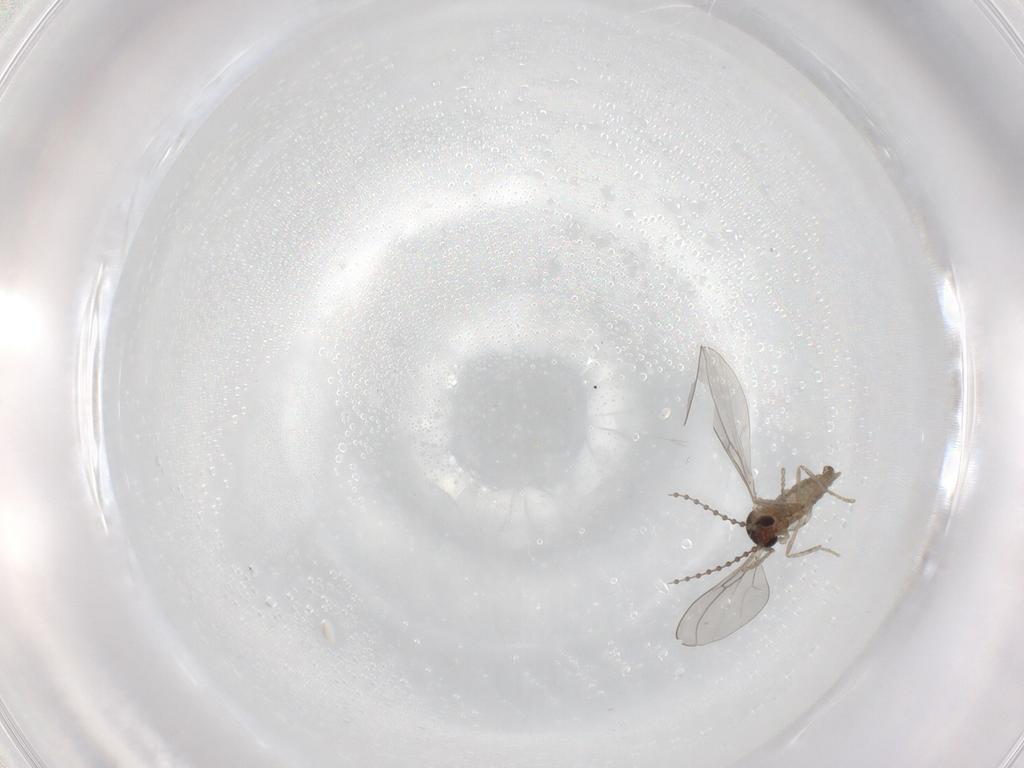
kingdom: Animalia
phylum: Arthropoda
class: Insecta
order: Diptera
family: Cecidomyiidae
